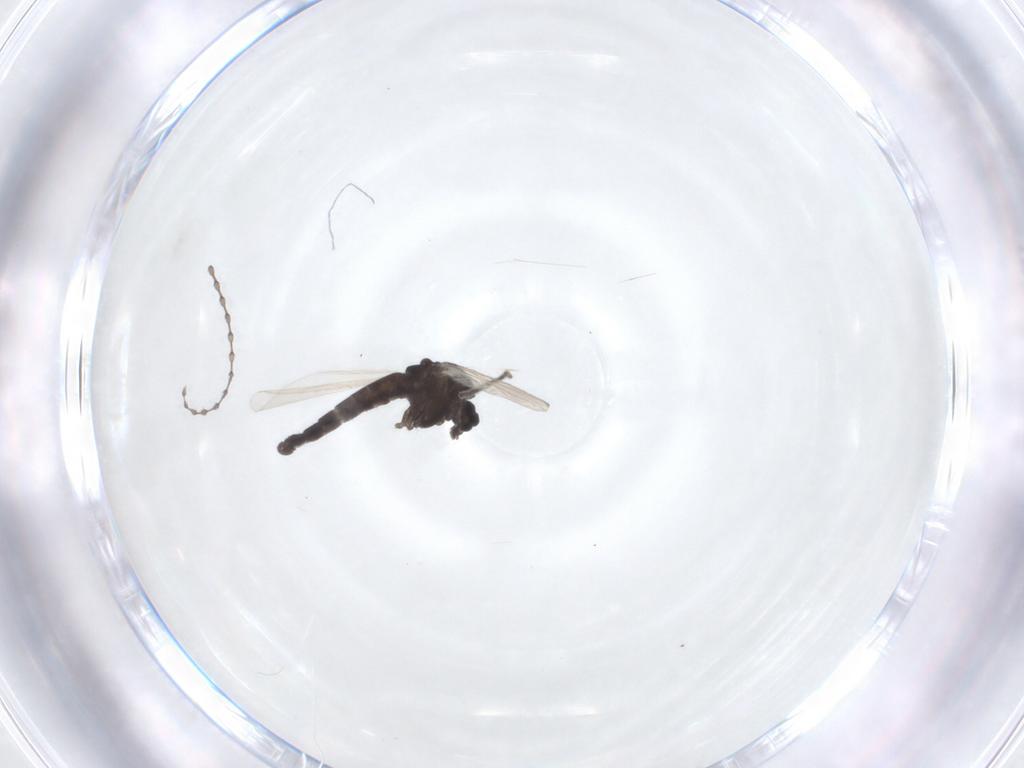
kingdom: Animalia
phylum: Arthropoda
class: Insecta
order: Diptera
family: Cecidomyiidae
